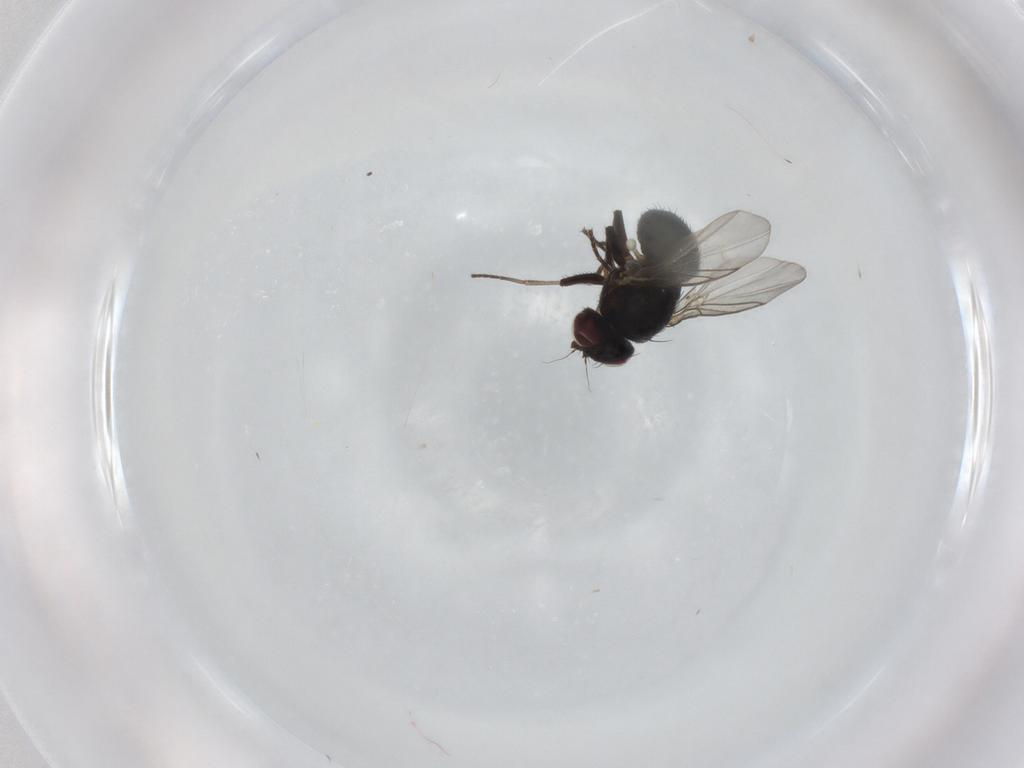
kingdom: Animalia
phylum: Arthropoda
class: Insecta
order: Diptera
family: Agromyzidae
